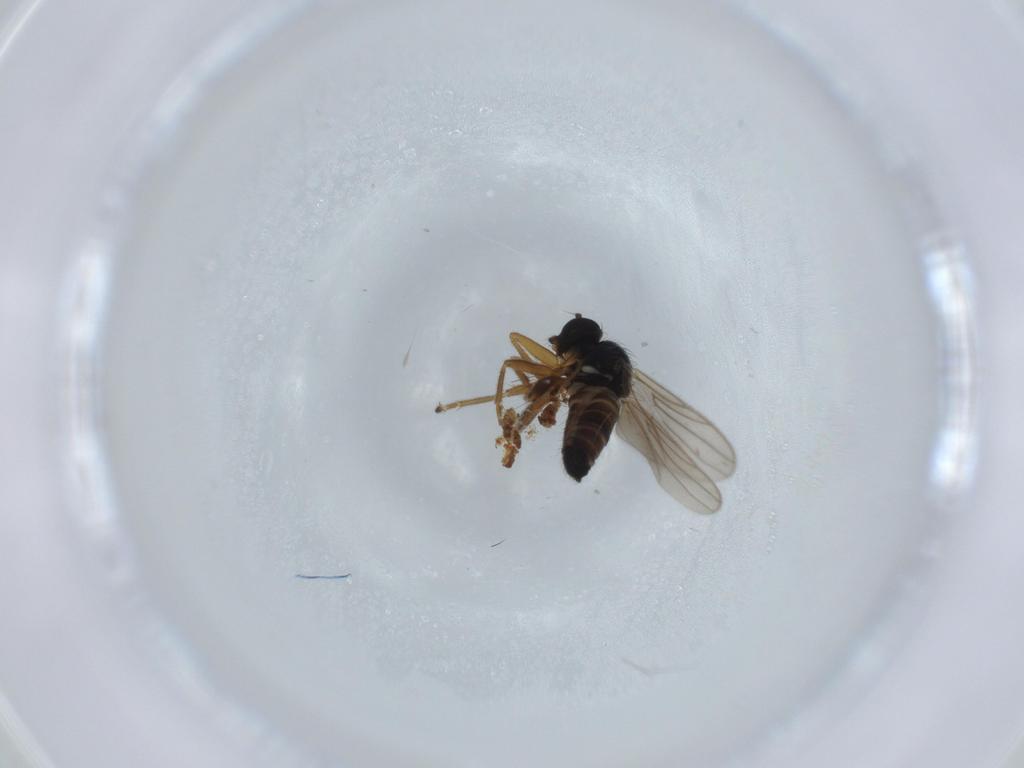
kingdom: Animalia
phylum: Arthropoda
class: Insecta
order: Diptera
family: Hybotidae
